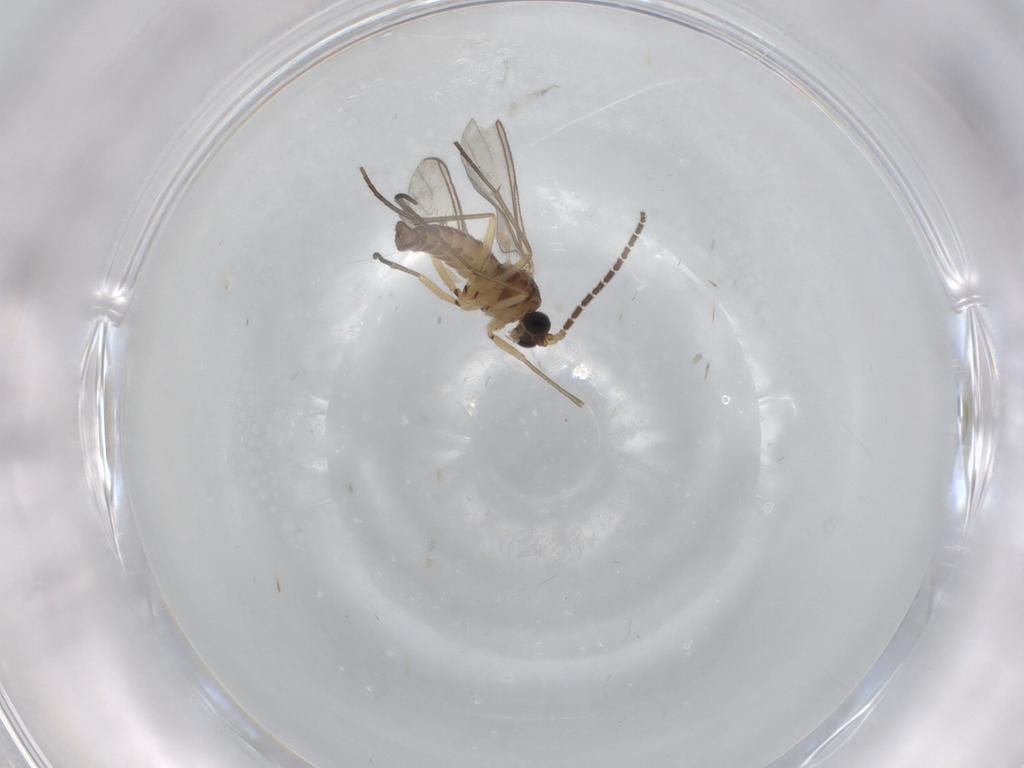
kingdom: Animalia
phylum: Arthropoda
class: Insecta
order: Diptera
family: Sciaridae
